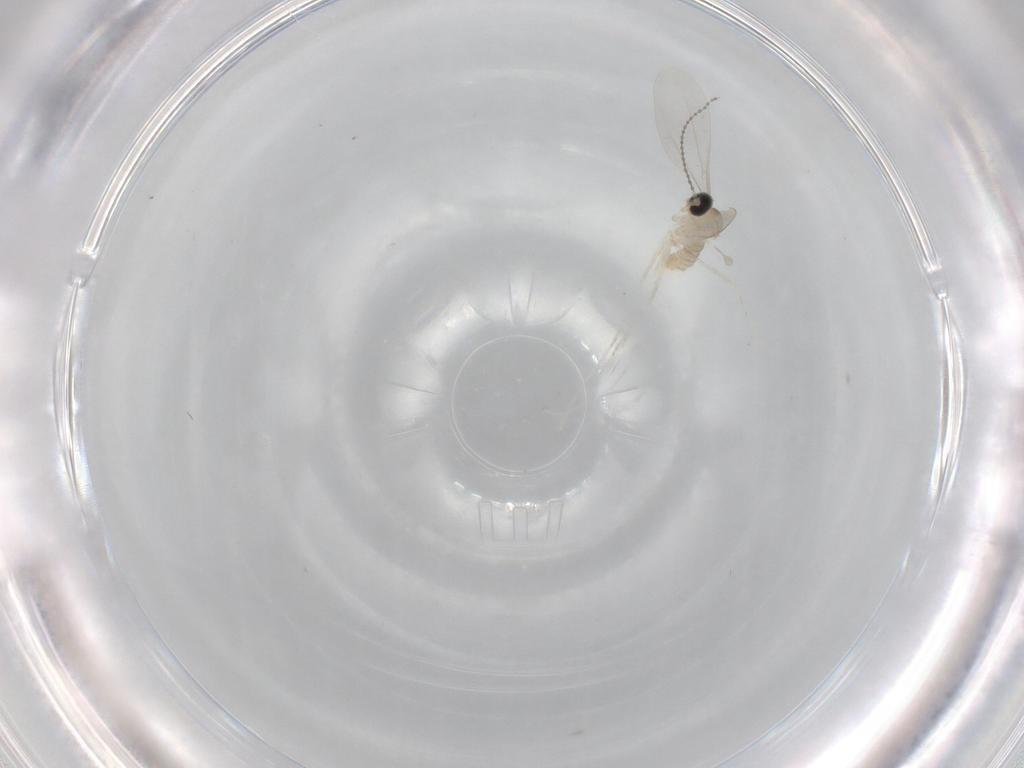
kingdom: Animalia
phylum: Arthropoda
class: Insecta
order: Diptera
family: Cecidomyiidae
